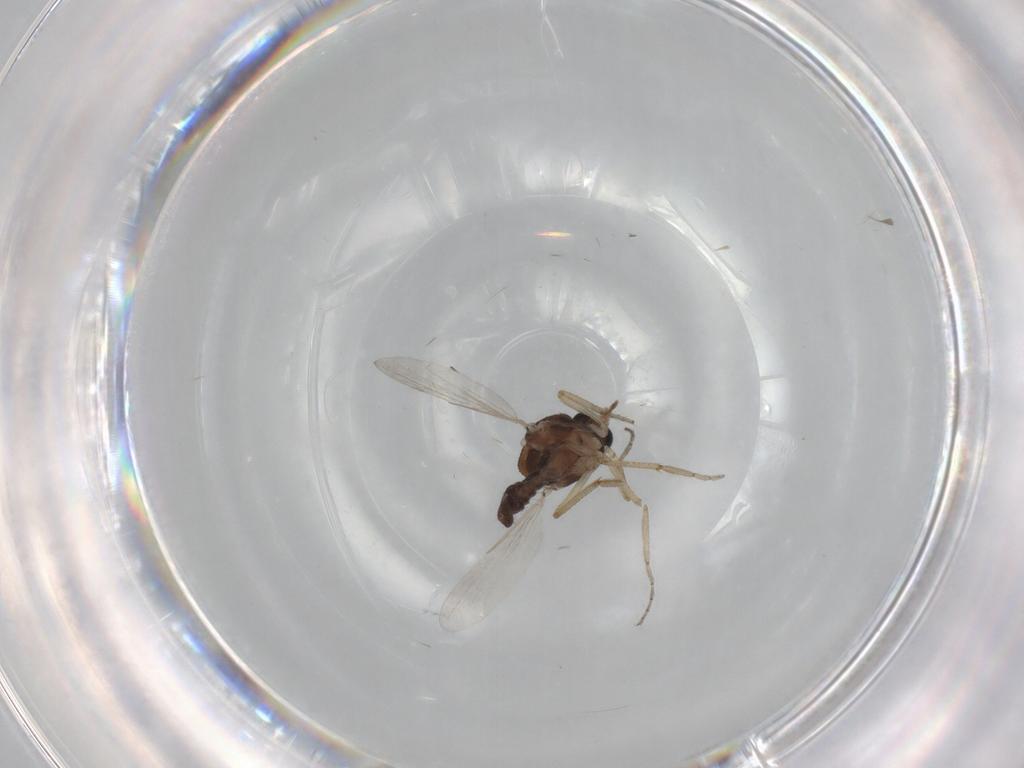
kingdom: Animalia
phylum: Arthropoda
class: Insecta
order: Diptera
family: Ceratopogonidae
